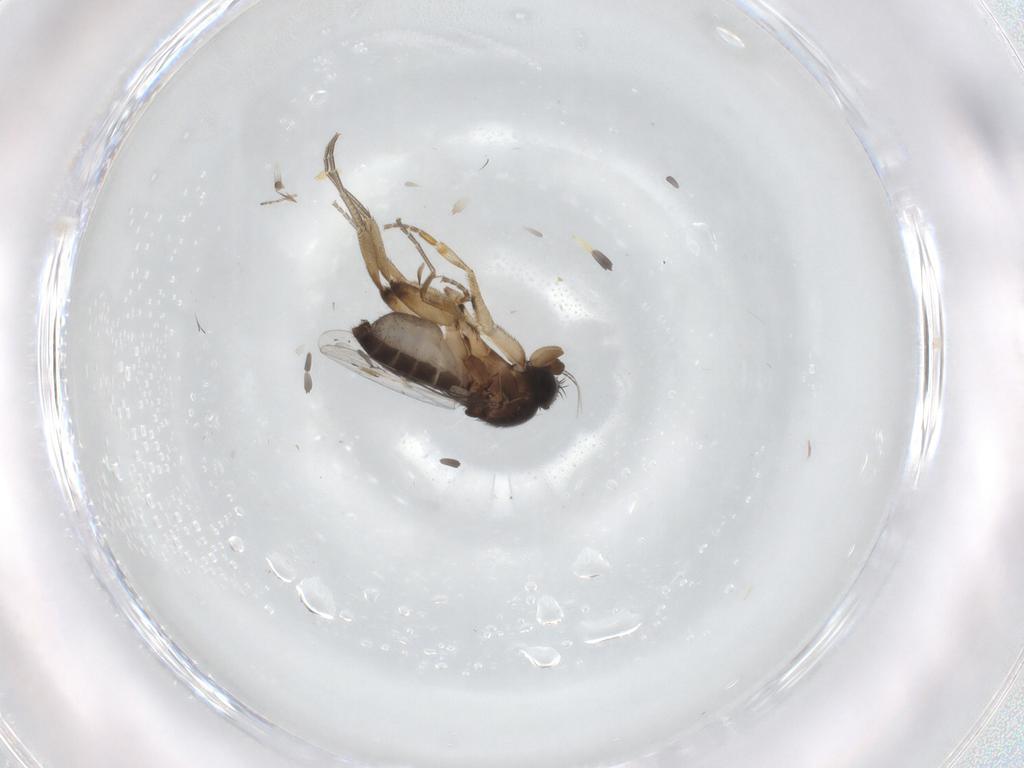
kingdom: Animalia
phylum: Arthropoda
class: Insecta
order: Diptera
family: Phoridae
